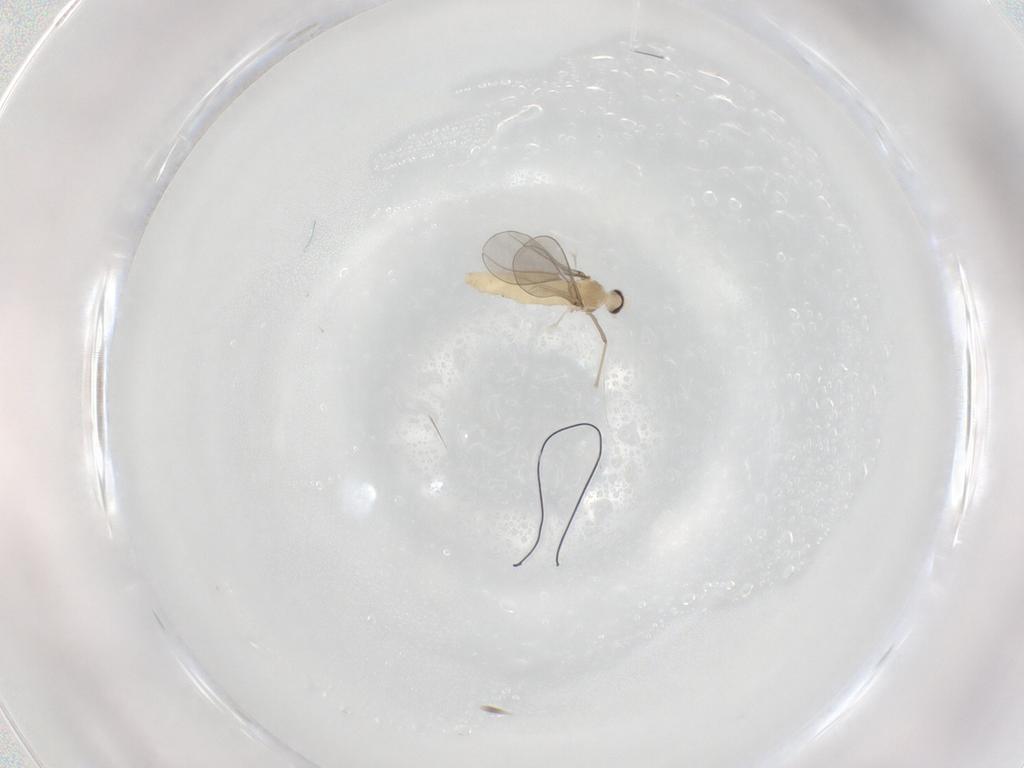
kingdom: Animalia
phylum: Arthropoda
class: Insecta
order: Diptera
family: Cecidomyiidae
